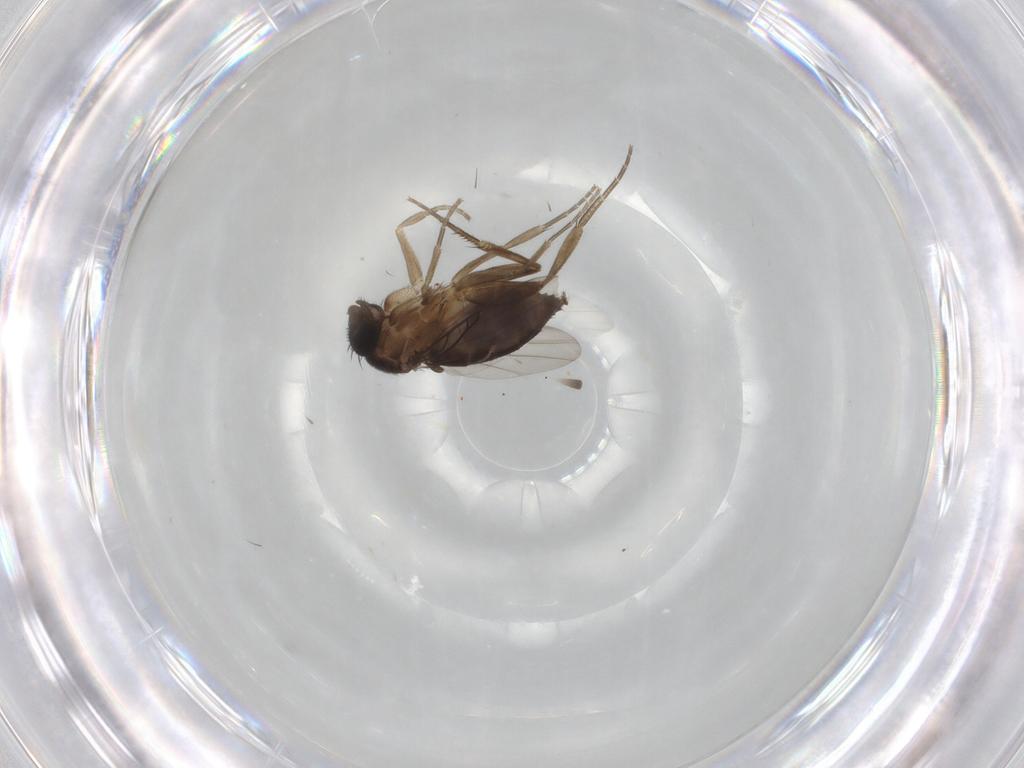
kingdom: Animalia
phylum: Arthropoda
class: Insecta
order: Diptera
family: Phoridae
